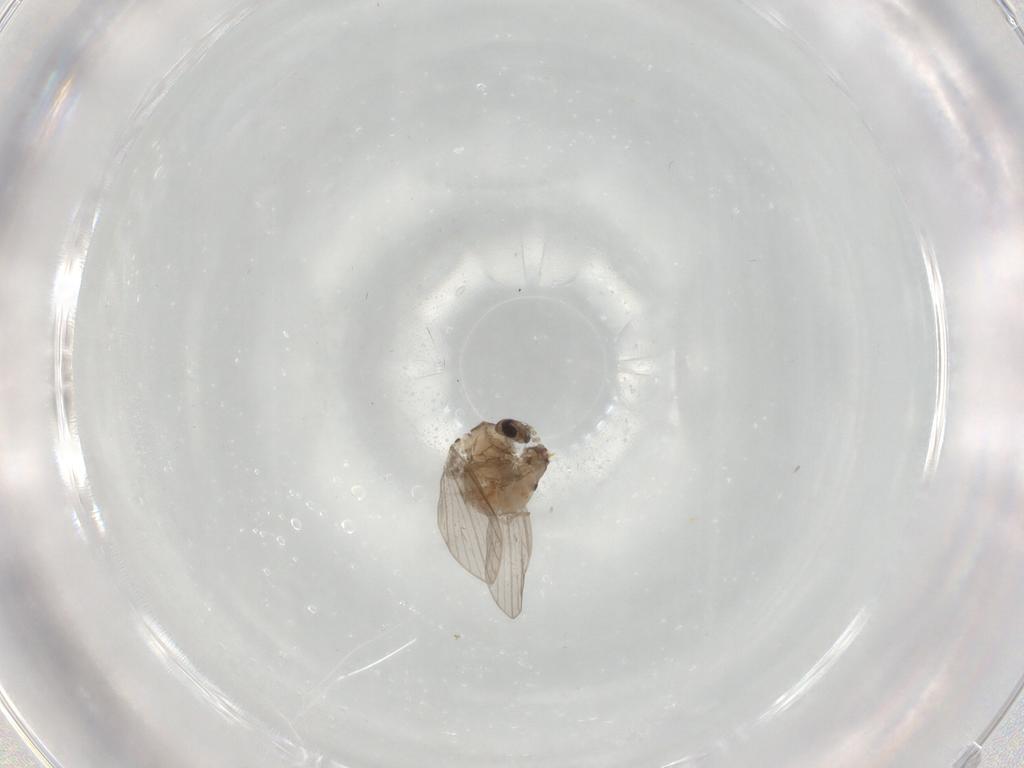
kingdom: Animalia
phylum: Arthropoda
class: Insecta
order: Diptera
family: Psychodidae
